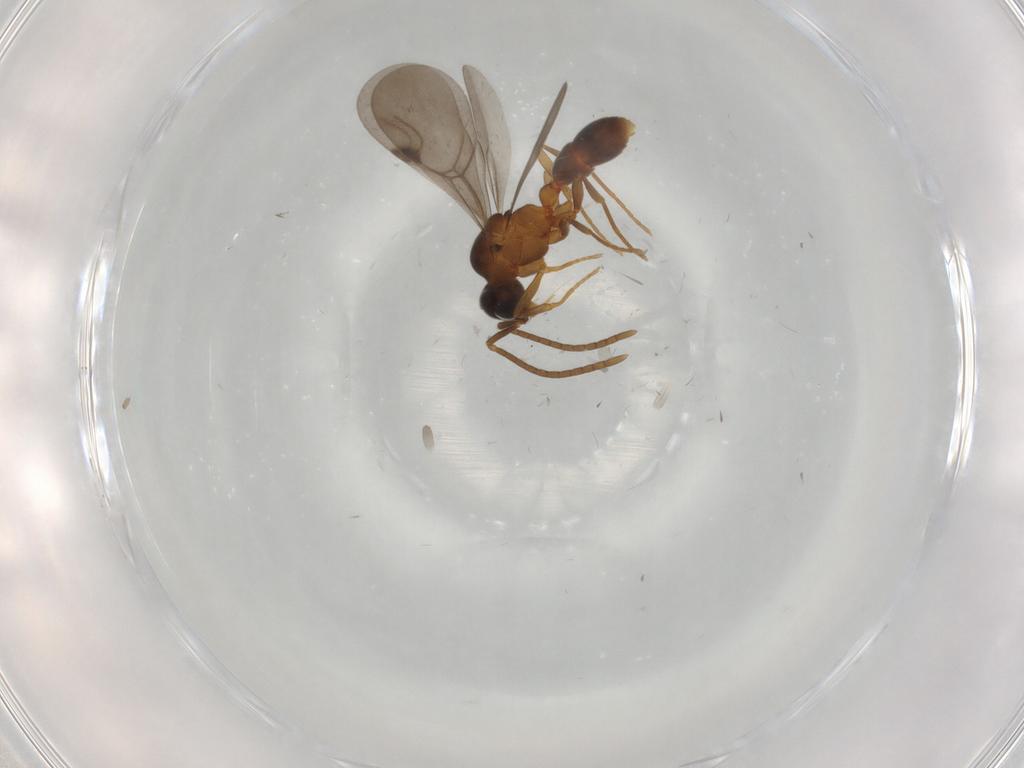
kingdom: Animalia
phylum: Arthropoda
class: Insecta
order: Hymenoptera
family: Formicidae
